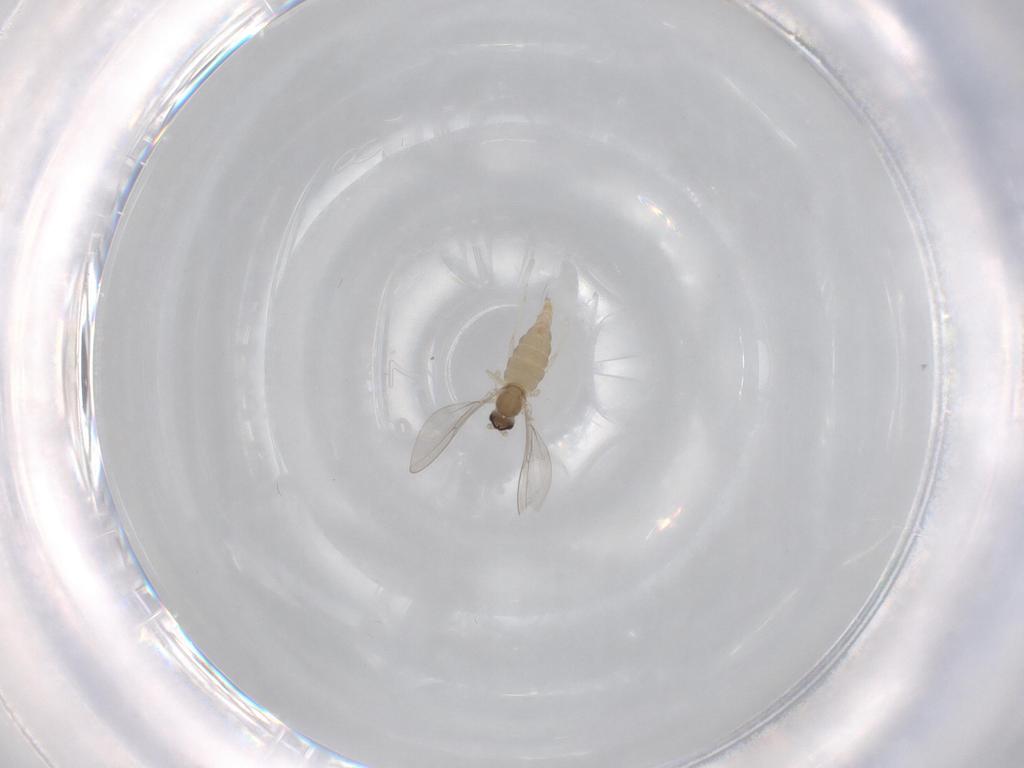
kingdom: Animalia
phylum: Arthropoda
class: Insecta
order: Diptera
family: Cecidomyiidae
